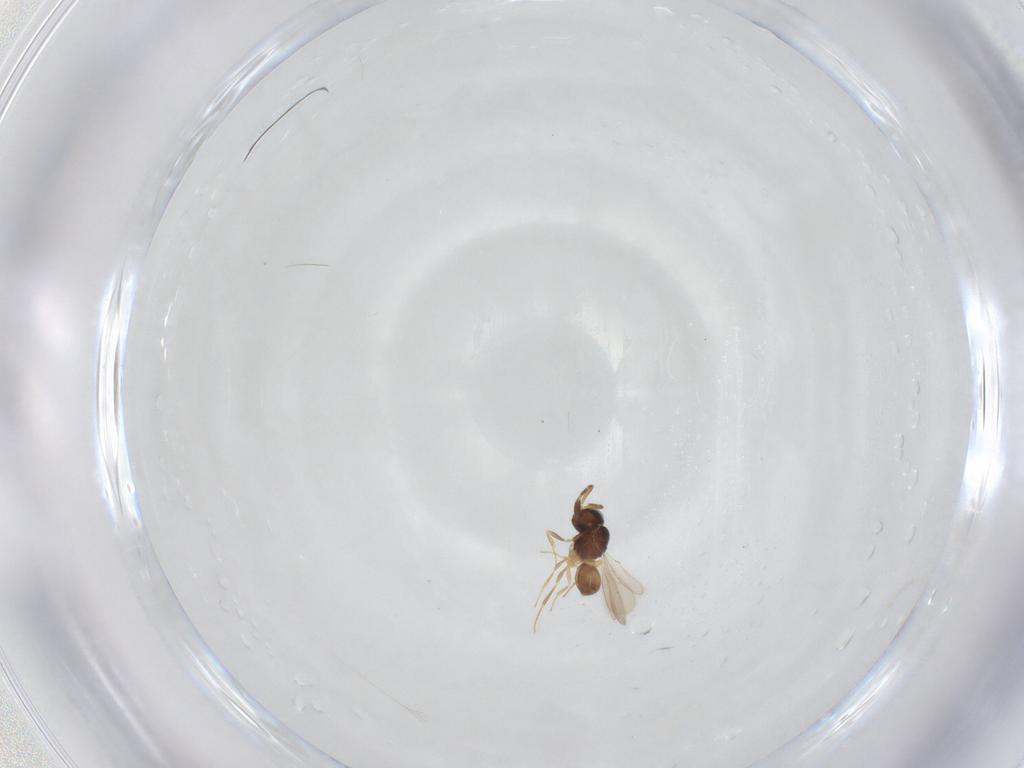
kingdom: Animalia
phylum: Arthropoda
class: Insecta
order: Hymenoptera
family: Scelionidae
